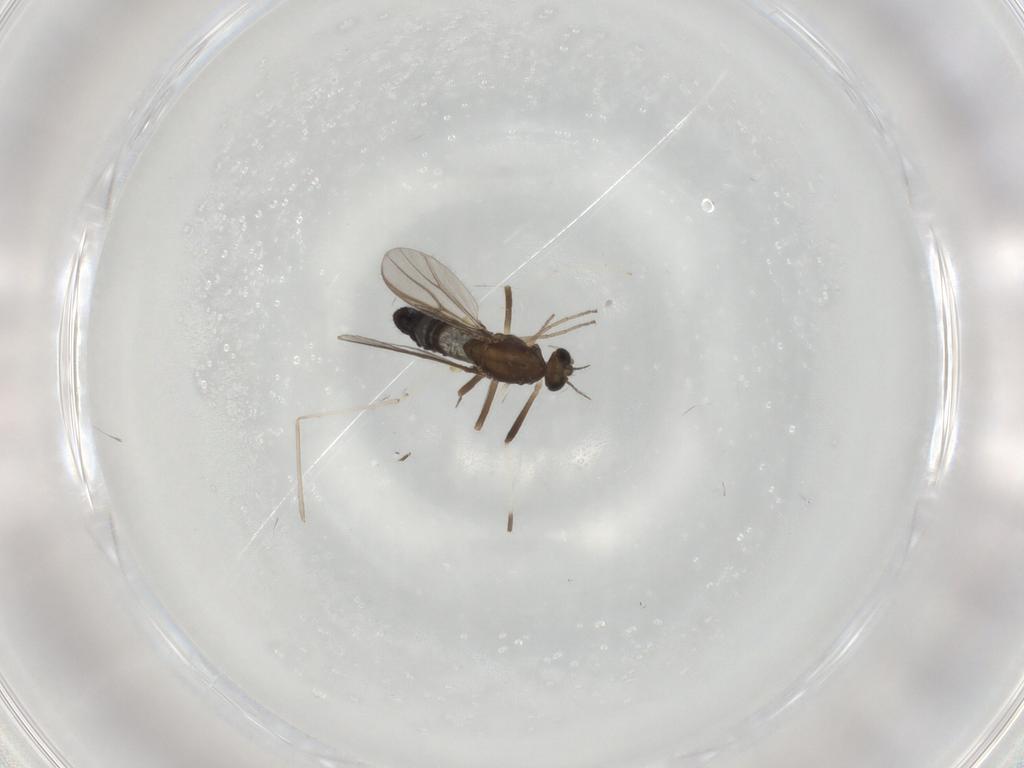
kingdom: Animalia
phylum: Arthropoda
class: Insecta
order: Diptera
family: Chironomidae
